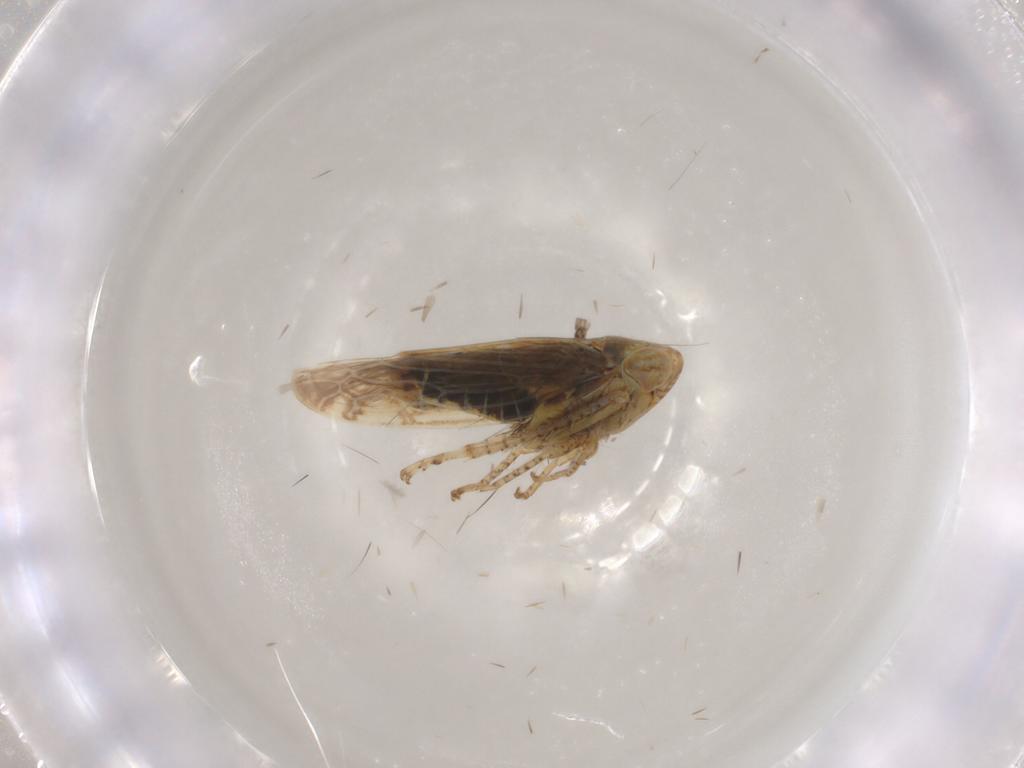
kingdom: Animalia
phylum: Arthropoda
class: Insecta
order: Hemiptera
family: Cicadellidae
